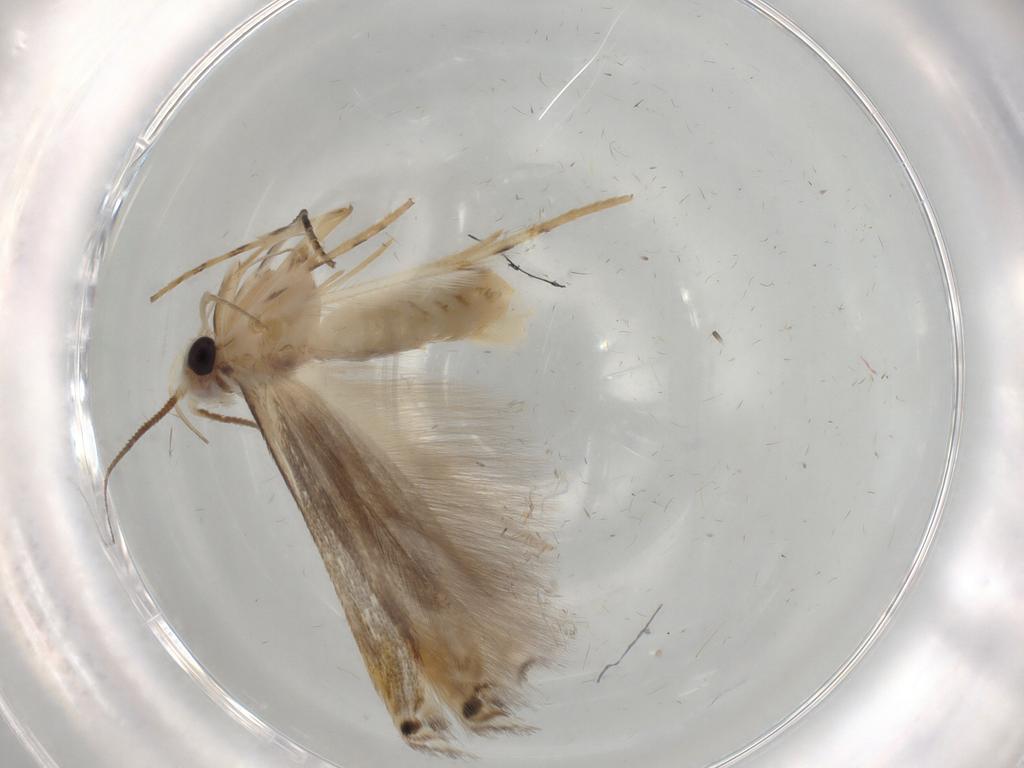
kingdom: Animalia
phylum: Arthropoda
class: Insecta
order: Lepidoptera
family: Gelechiidae
